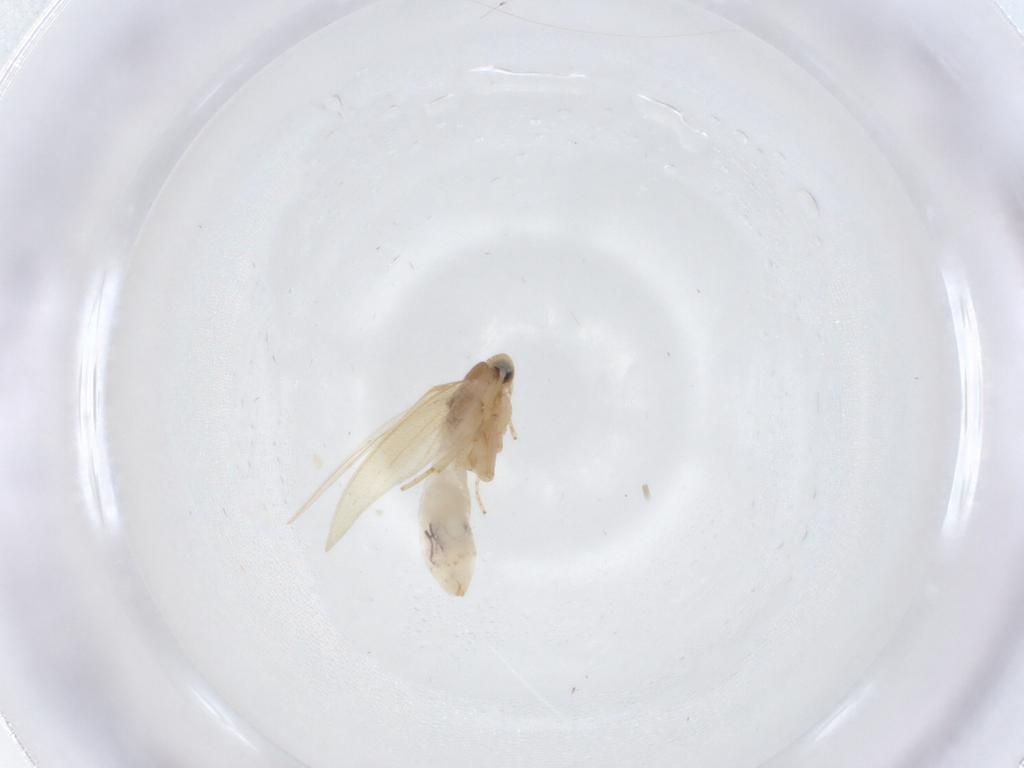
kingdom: Animalia
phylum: Arthropoda
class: Insecta
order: Lepidoptera
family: Nepticulidae
